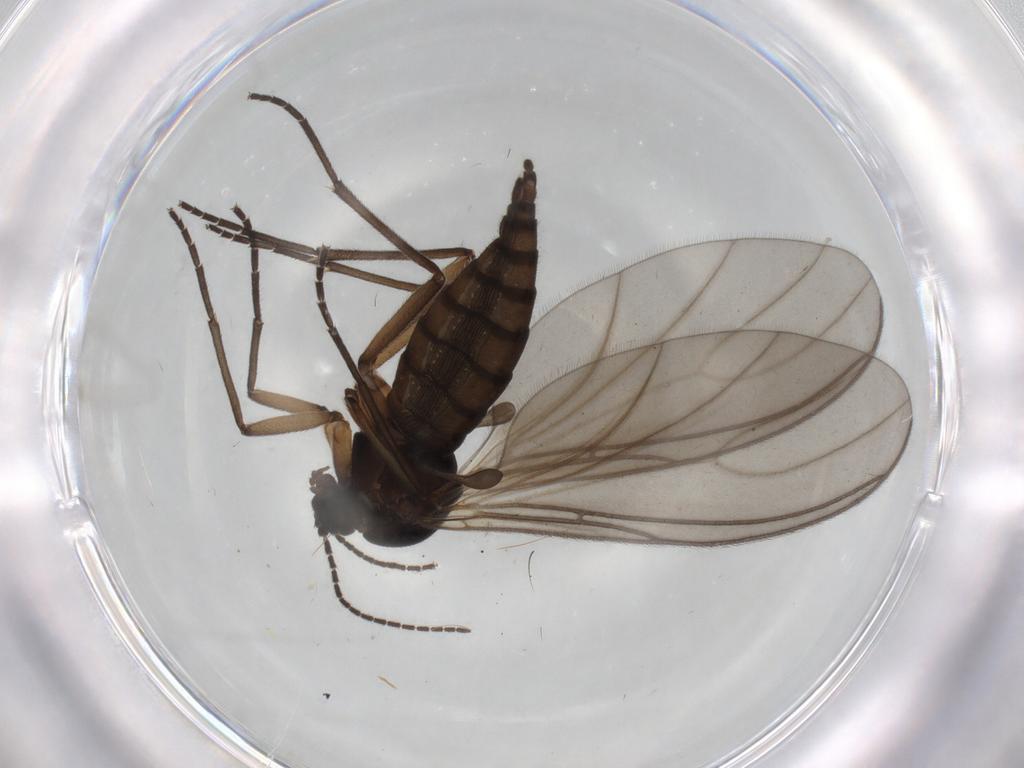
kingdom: Animalia
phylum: Arthropoda
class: Insecta
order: Diptera
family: Sciaridae
